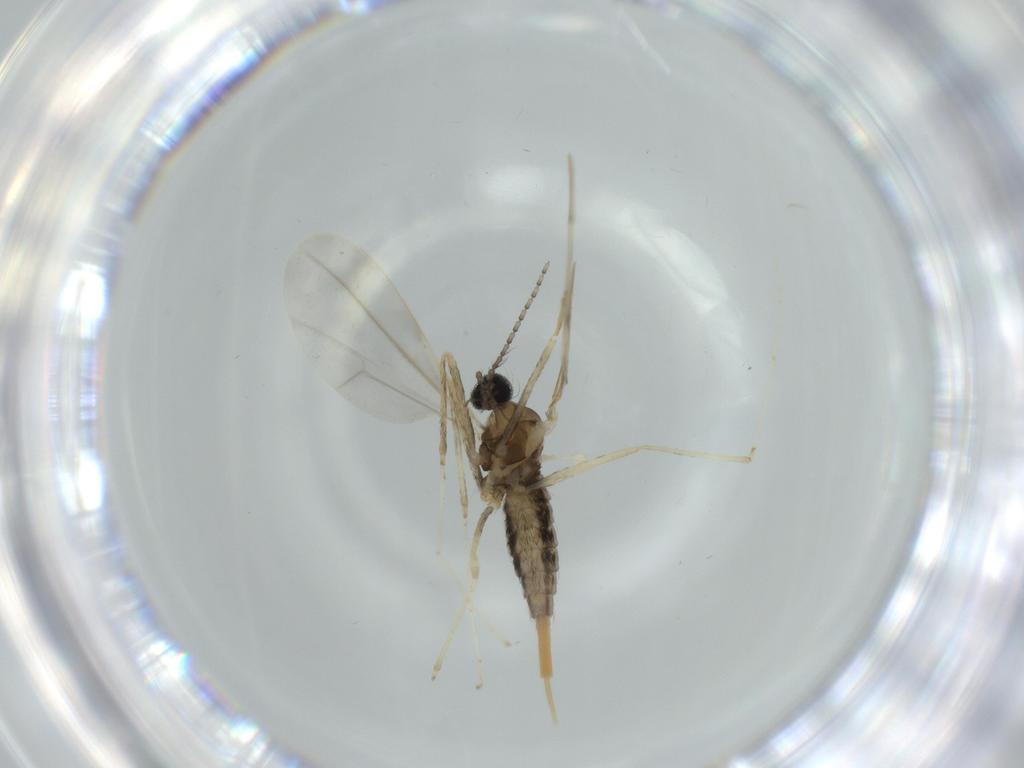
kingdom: Animalia
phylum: Arthropoda
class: Insecta
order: Diptera
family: Cecidomyiidae
